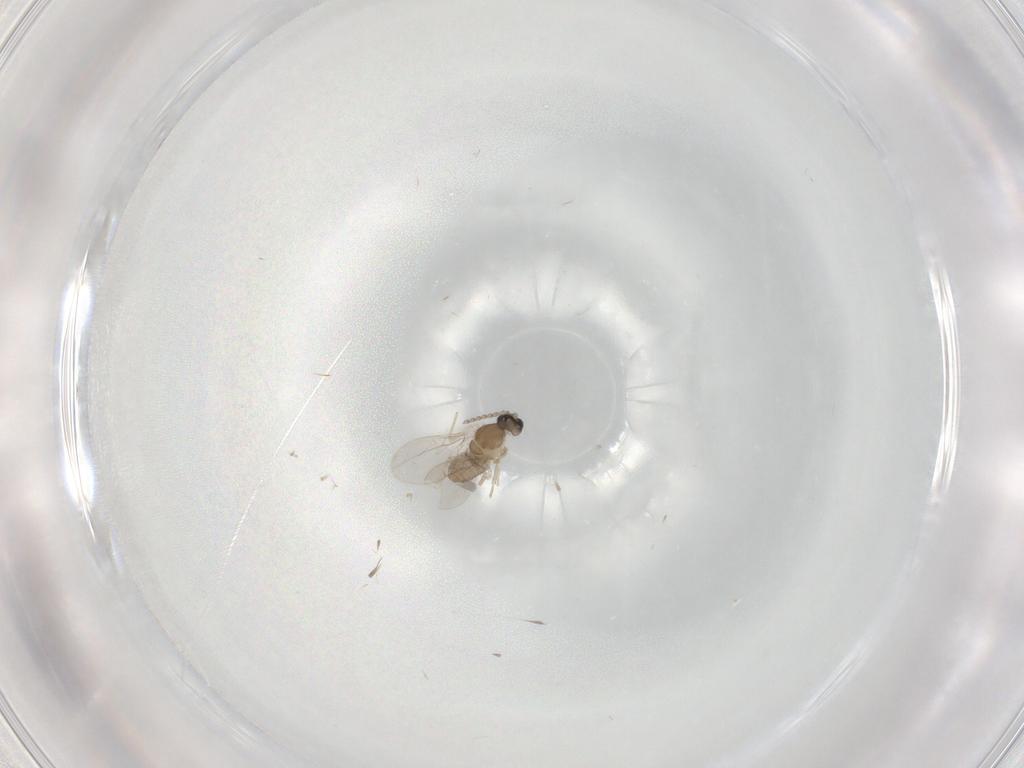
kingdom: Animalia
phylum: Arthropoda
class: Insecta
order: Diptera
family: Cecidomyiidae
